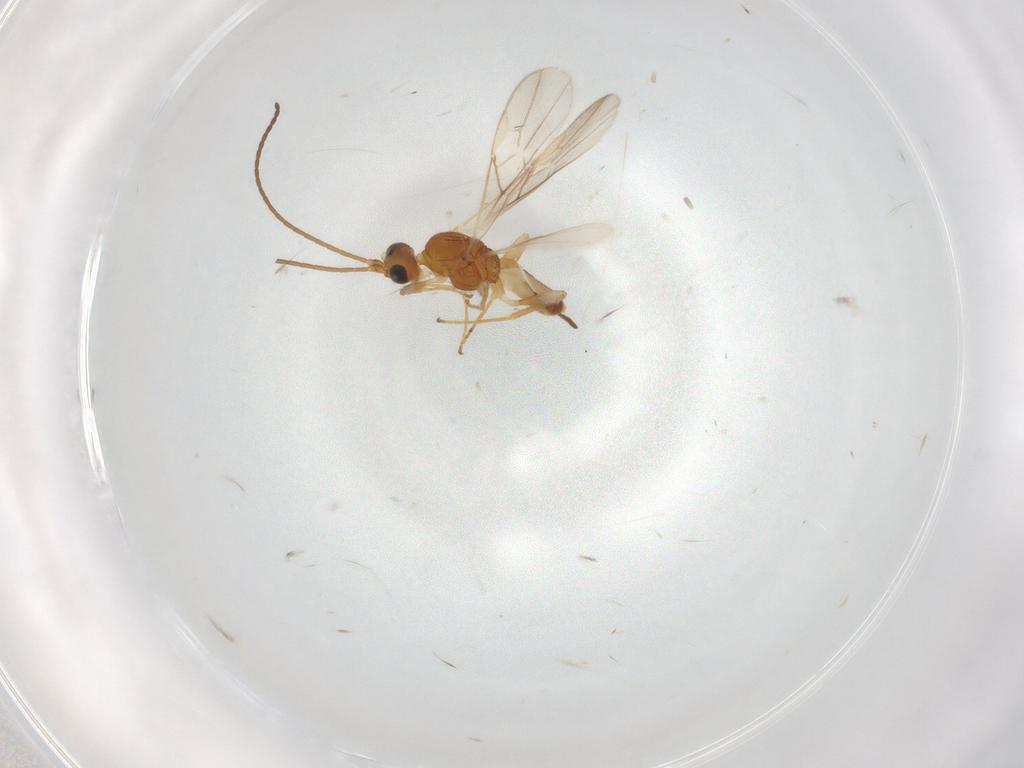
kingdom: Animalia
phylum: Arthropoda
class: Insecta
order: Hymenoptera
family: Braconidae
